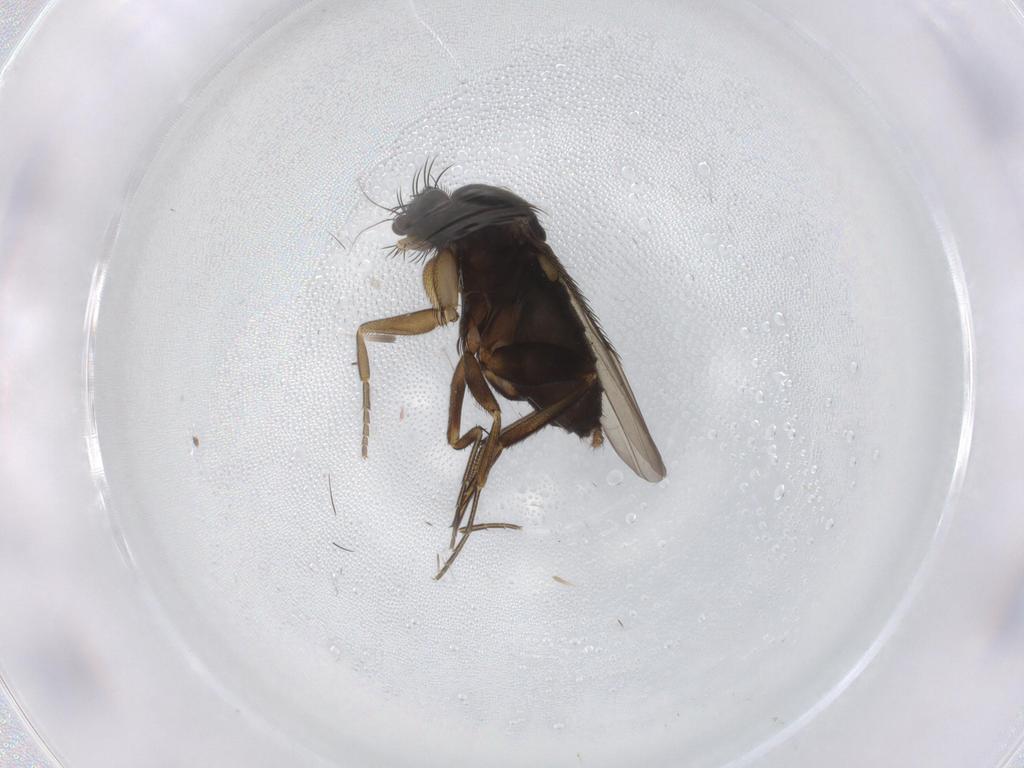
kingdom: Animalia
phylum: Arthropoda
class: Insecta
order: Diptera
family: Phoridae
